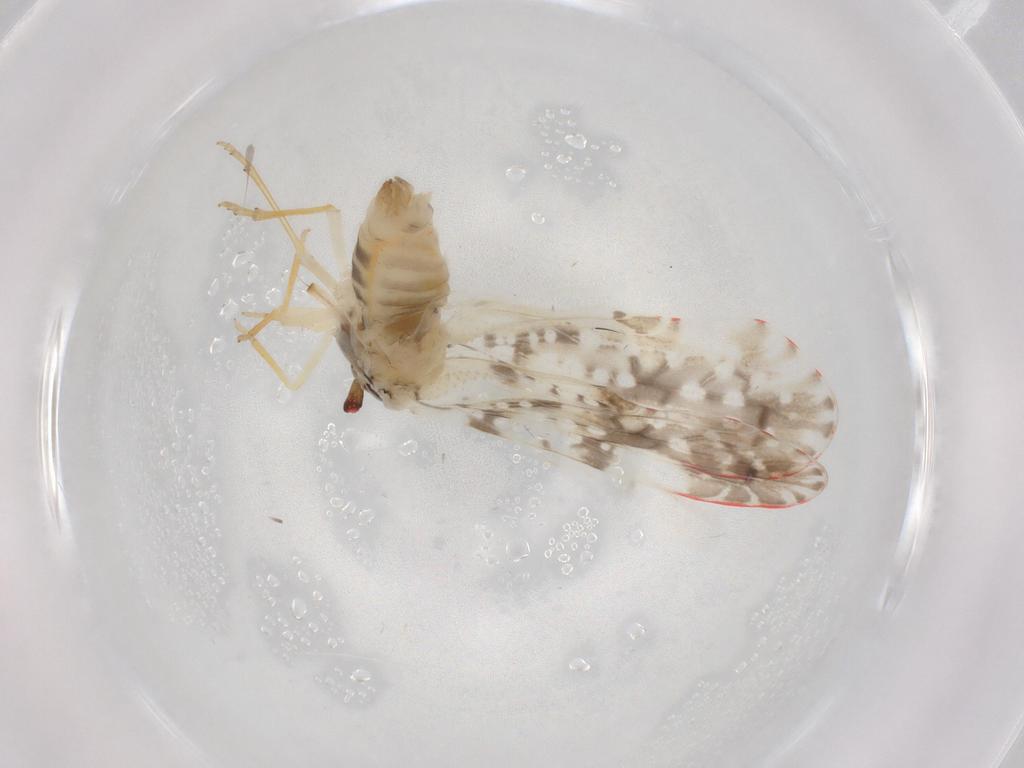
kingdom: Animalia
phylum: Arthropoda
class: Insecta
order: Hemiptera
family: Derbidae
